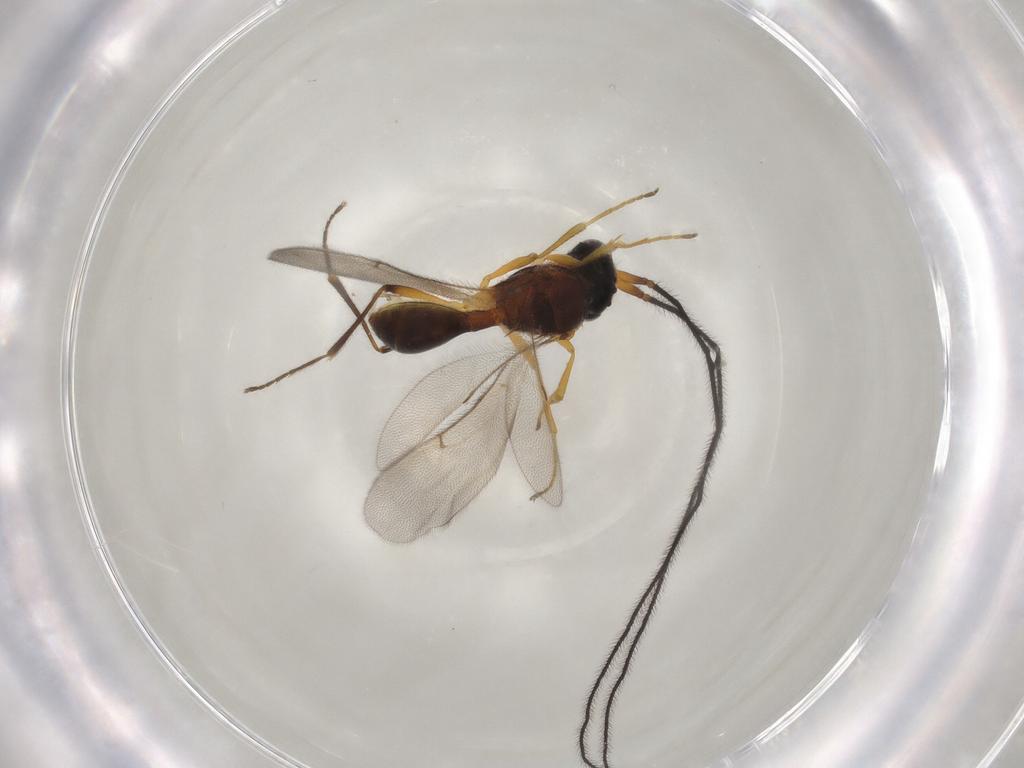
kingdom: Animalia
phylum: Arthropoda
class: Insecta
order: Hymenoptera
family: Scelionidae
